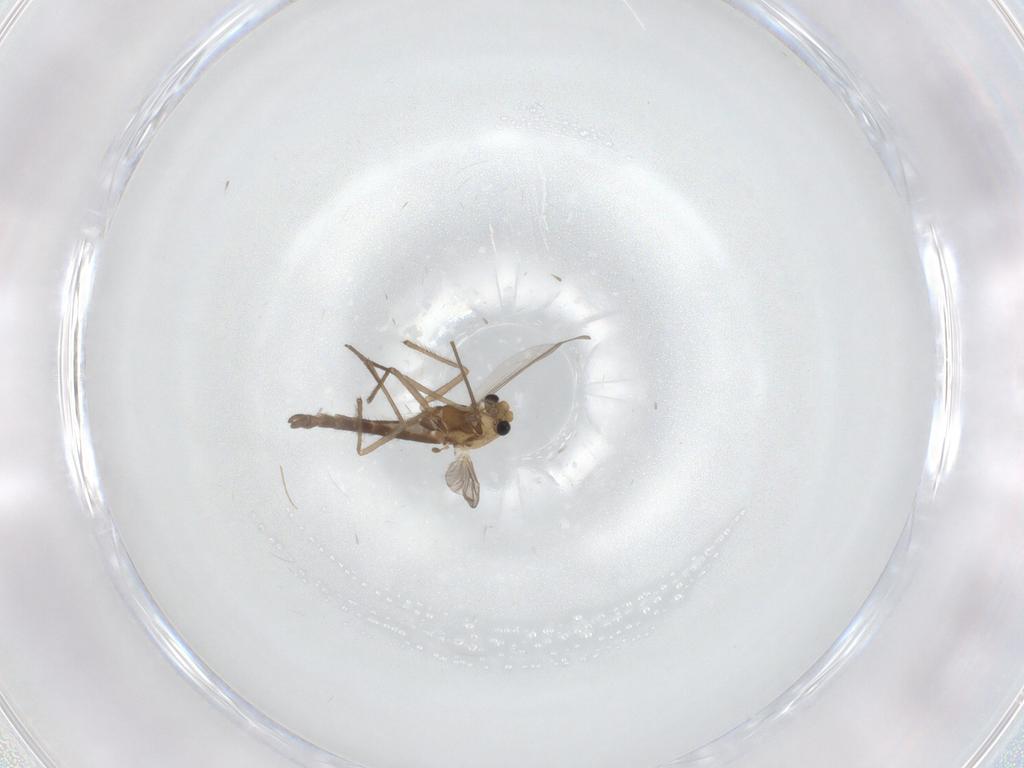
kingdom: Animalia
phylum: Arthropoda
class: Insecta
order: Diptera
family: Chironomidae
